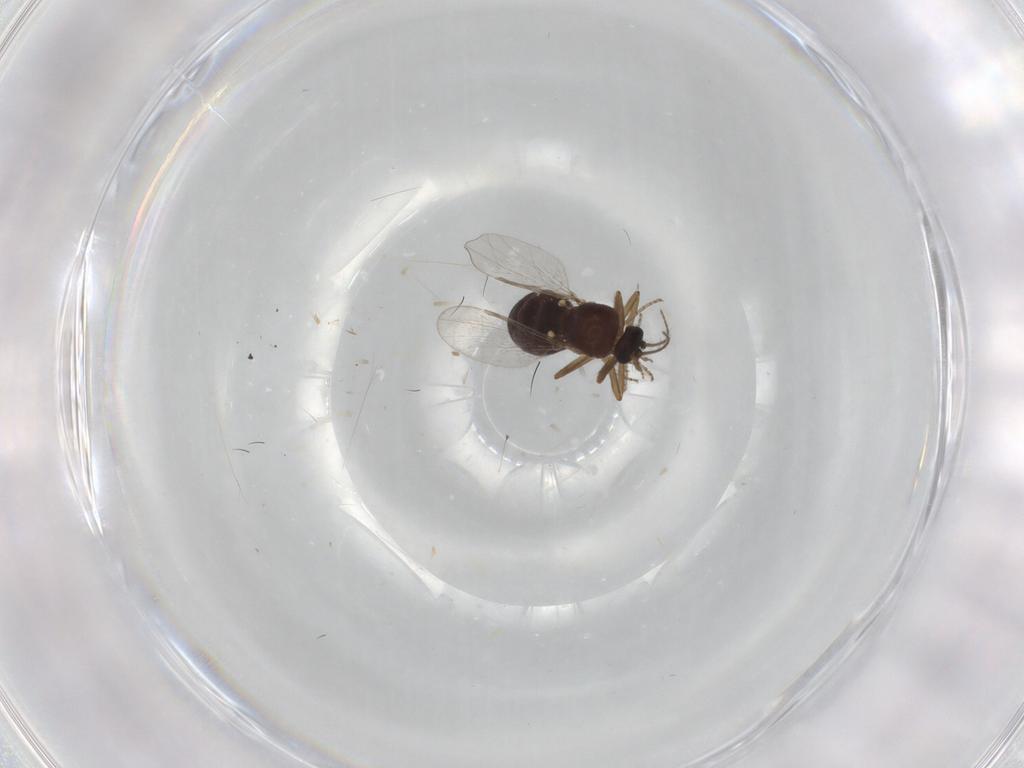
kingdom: Animalia
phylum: Arthropoda
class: Insecta
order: Diptera
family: Ceratopogonidae
